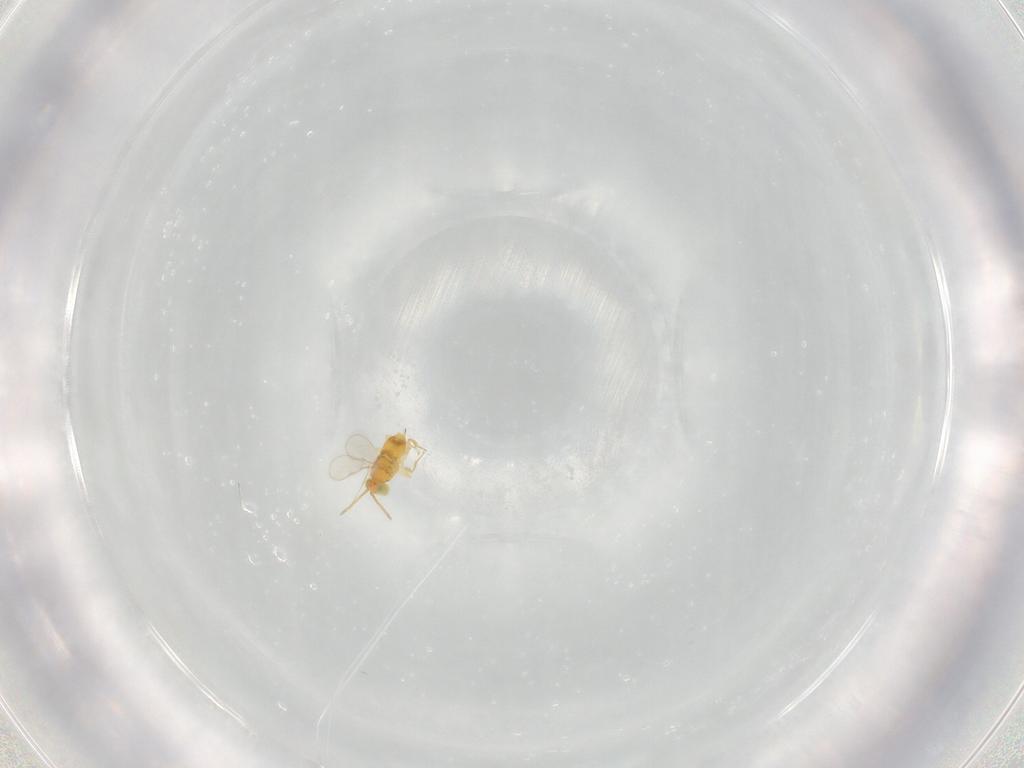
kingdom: Animalia
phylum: Arthropoda
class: Insecta
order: Hymenoptera
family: Aphelinidae
